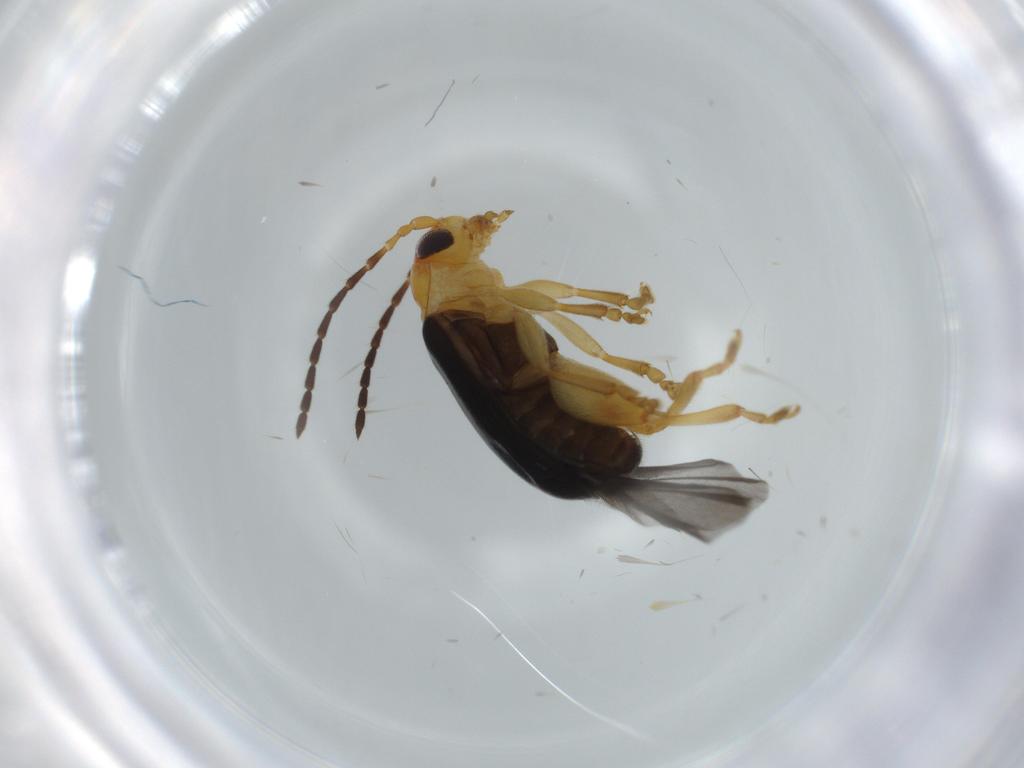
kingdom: Animalia
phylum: Arthropoda
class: Insecta
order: Coleoptera
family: Chrysomelidae
